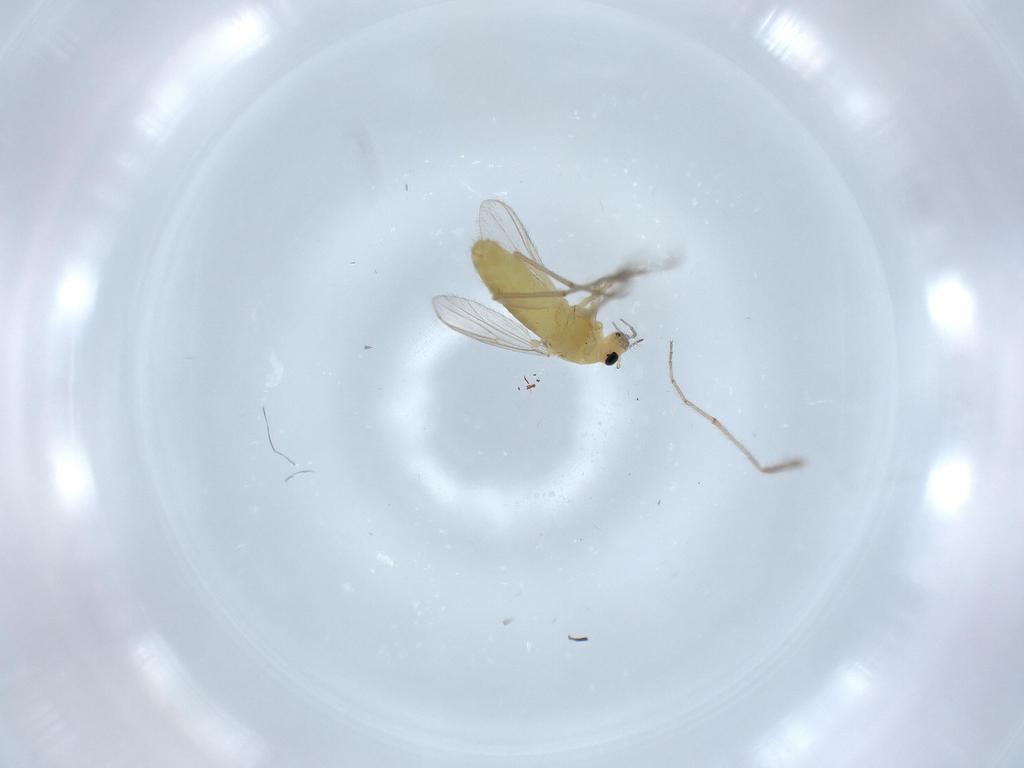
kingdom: Animalia
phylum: Arthropoda
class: Insecta
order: Diptera
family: Chironomidae
